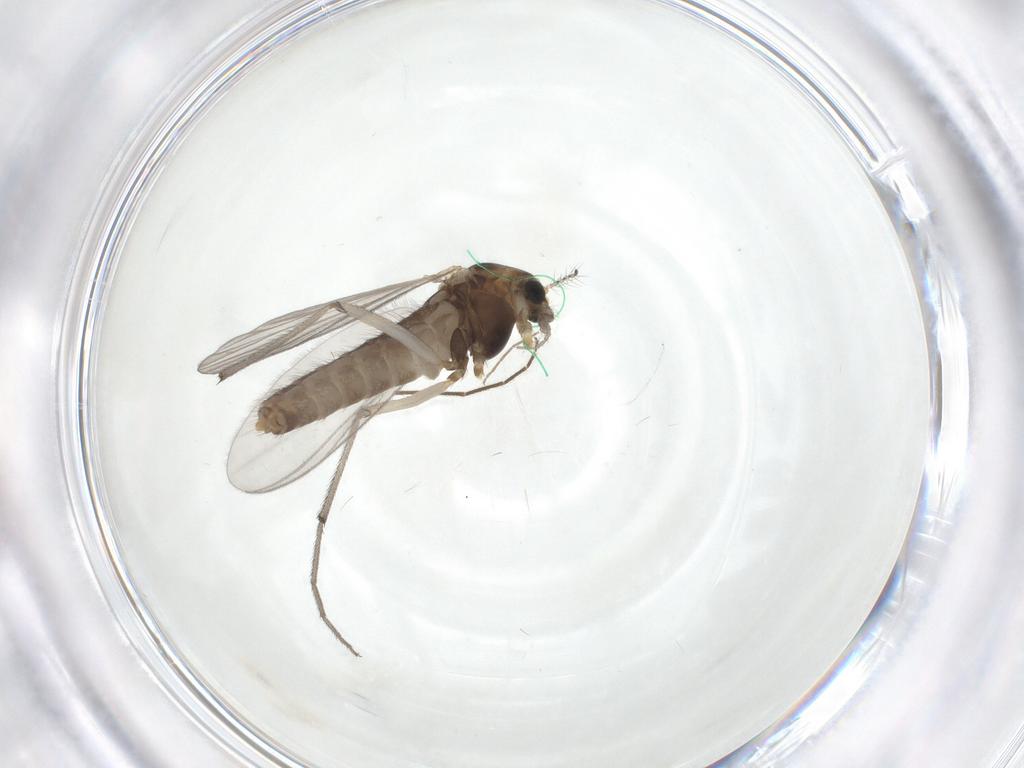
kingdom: Animalia
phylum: Arthropoda
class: Insecta
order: Diptera
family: Chironomidae
